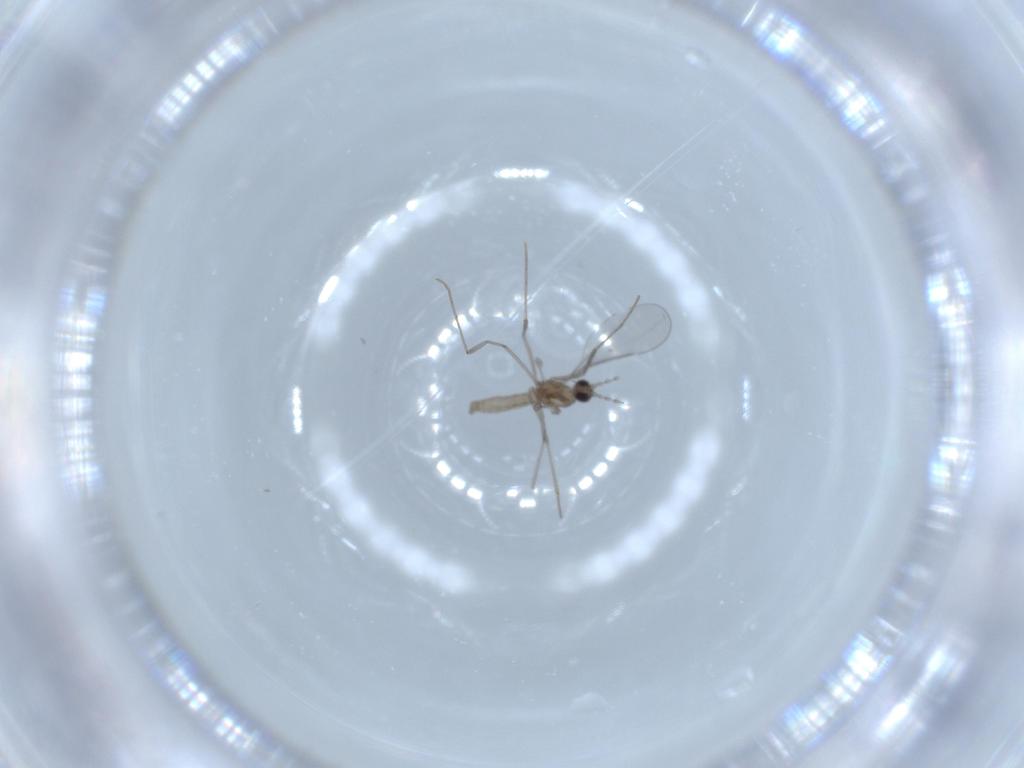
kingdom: Animalia
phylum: Arthropoda
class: Insecta
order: Diptera
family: Cecidomyiidae
